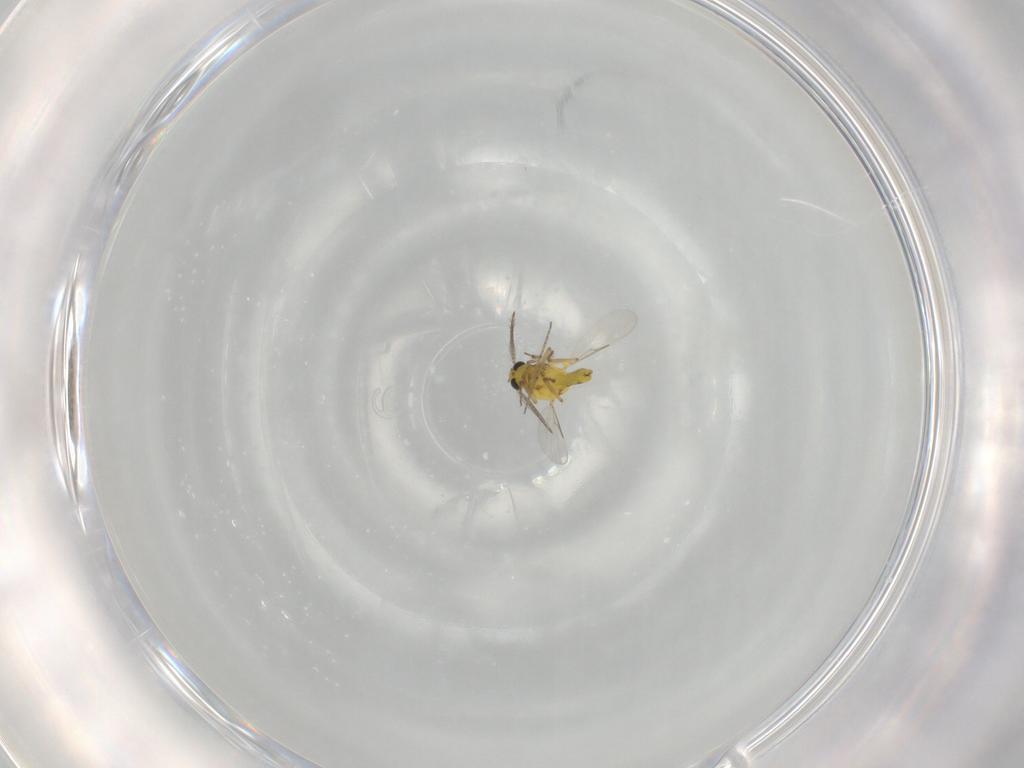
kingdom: Animalia
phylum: Arthropoda
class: Insecta
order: Diptera
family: Ceratopogonidae
